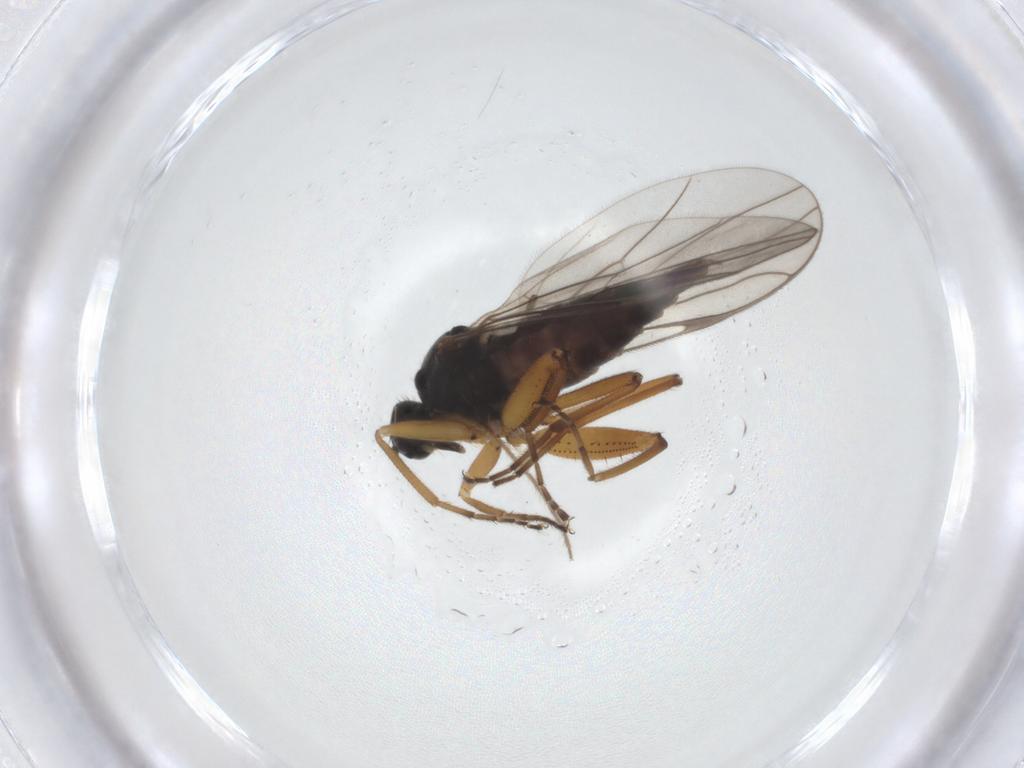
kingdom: Animalia
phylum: Arthropoda
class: Insecta
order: Diptera
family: Hybotidae
